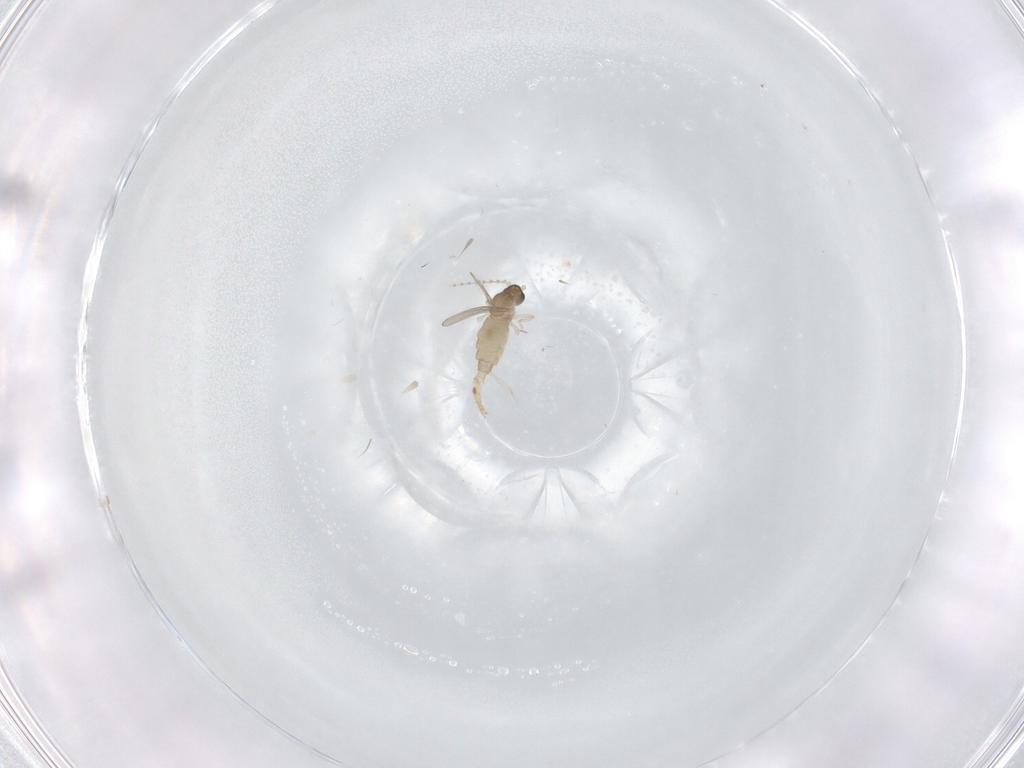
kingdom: Animalia
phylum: Arthropoda
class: Insecta
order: Diptera
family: Cecidomyiidae
